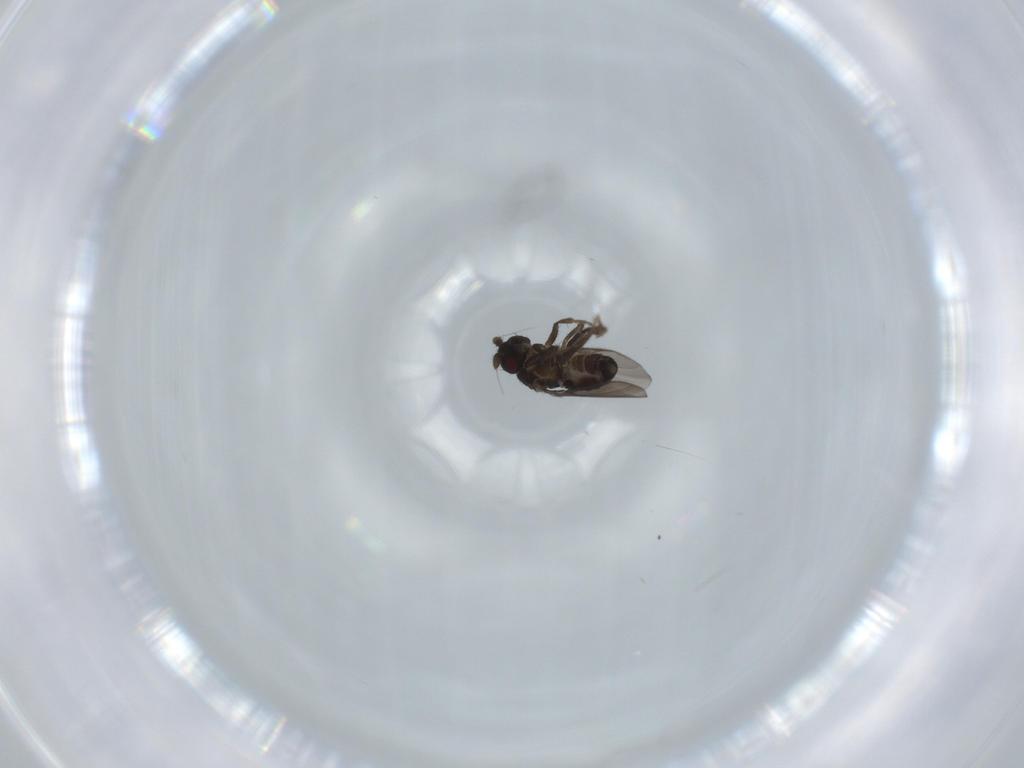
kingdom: Animalia
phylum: Arthropoda
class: Insecta
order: Diptera
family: Sphaeroceridae
